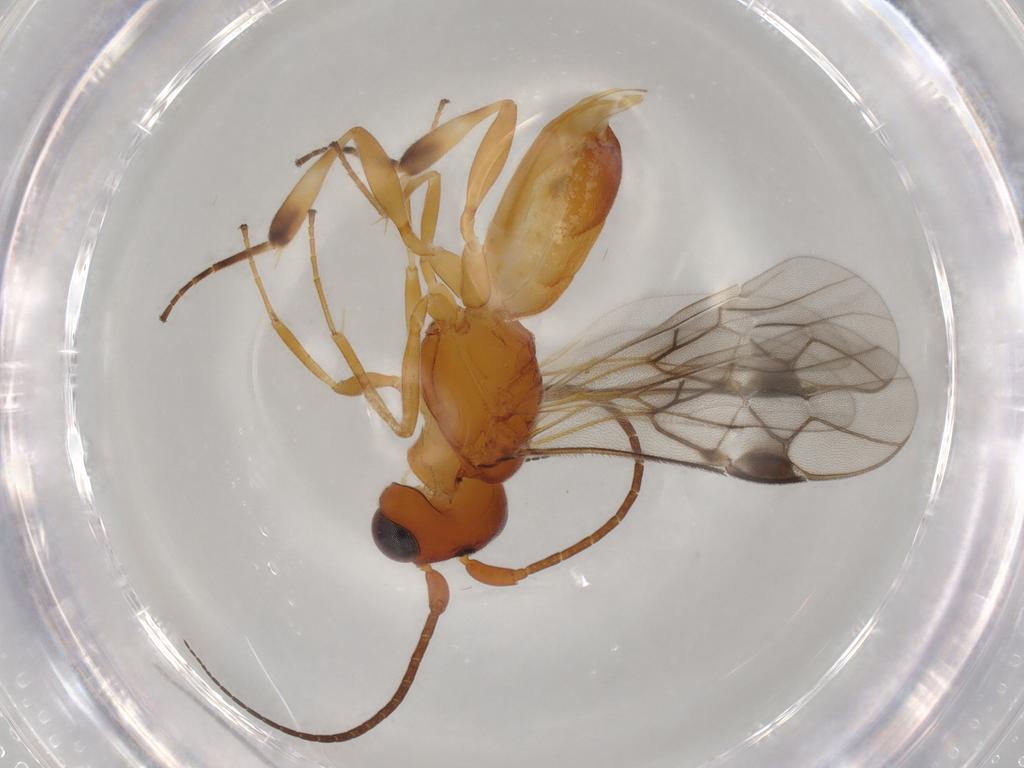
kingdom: Animalia
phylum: Arthropoda
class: Insecta
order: Hymenoptera
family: Braconidae
